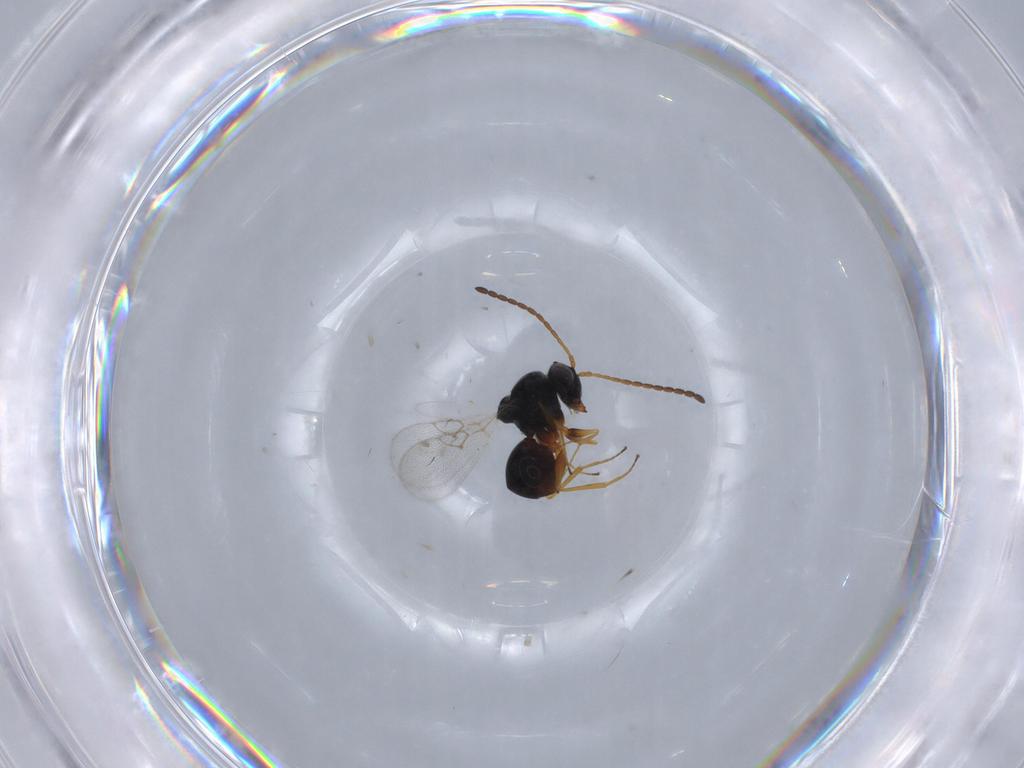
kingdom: Animalia
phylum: Arthropoda
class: Insecta
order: Hymenoptera
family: Figitidae
